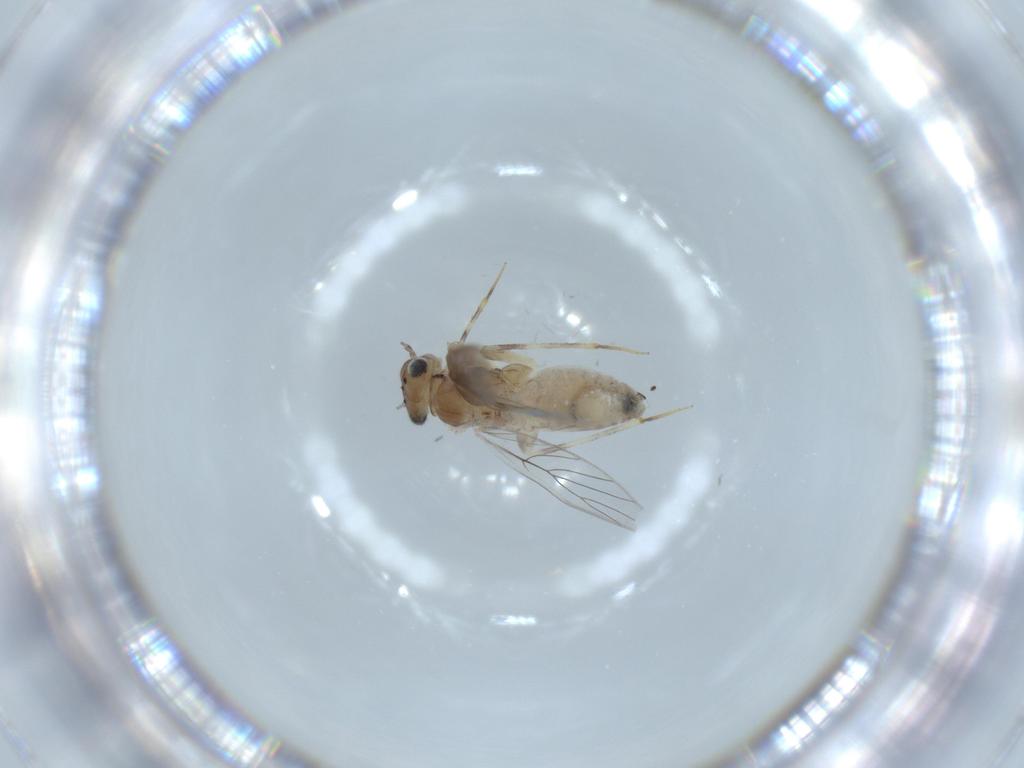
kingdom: Animalia
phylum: Arthropoda
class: Insecta
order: Psocodea
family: Lepidopsocidae
